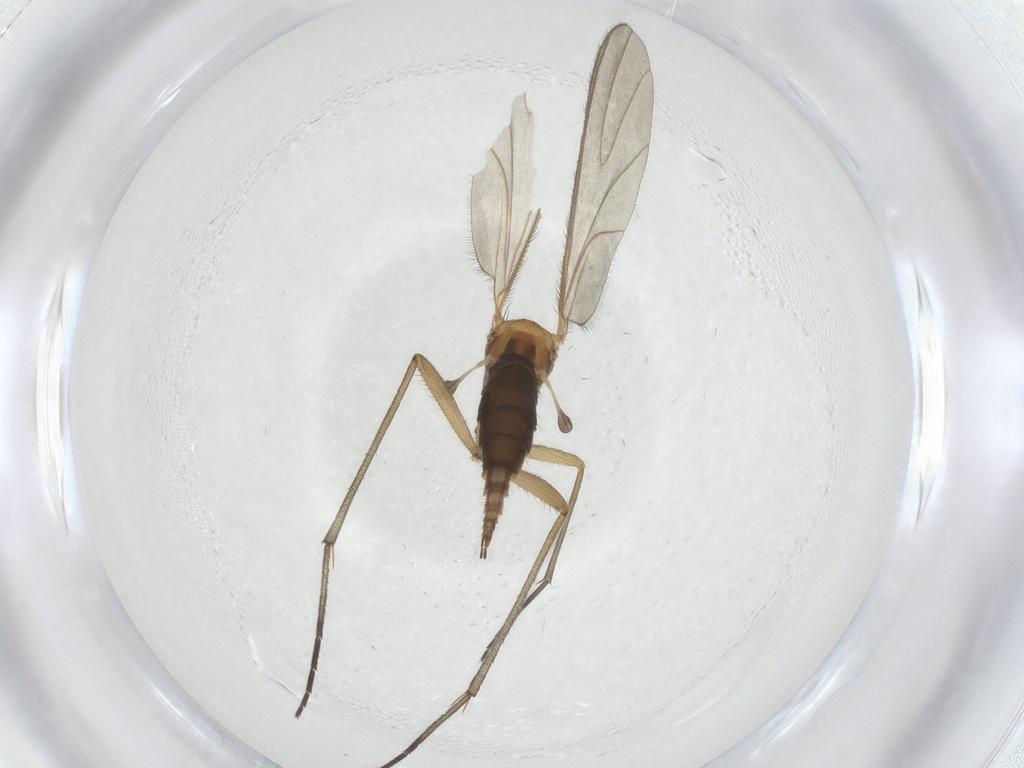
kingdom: Animalia
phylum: Arthropoda
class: Insecta
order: Diptera
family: Sciaridae
